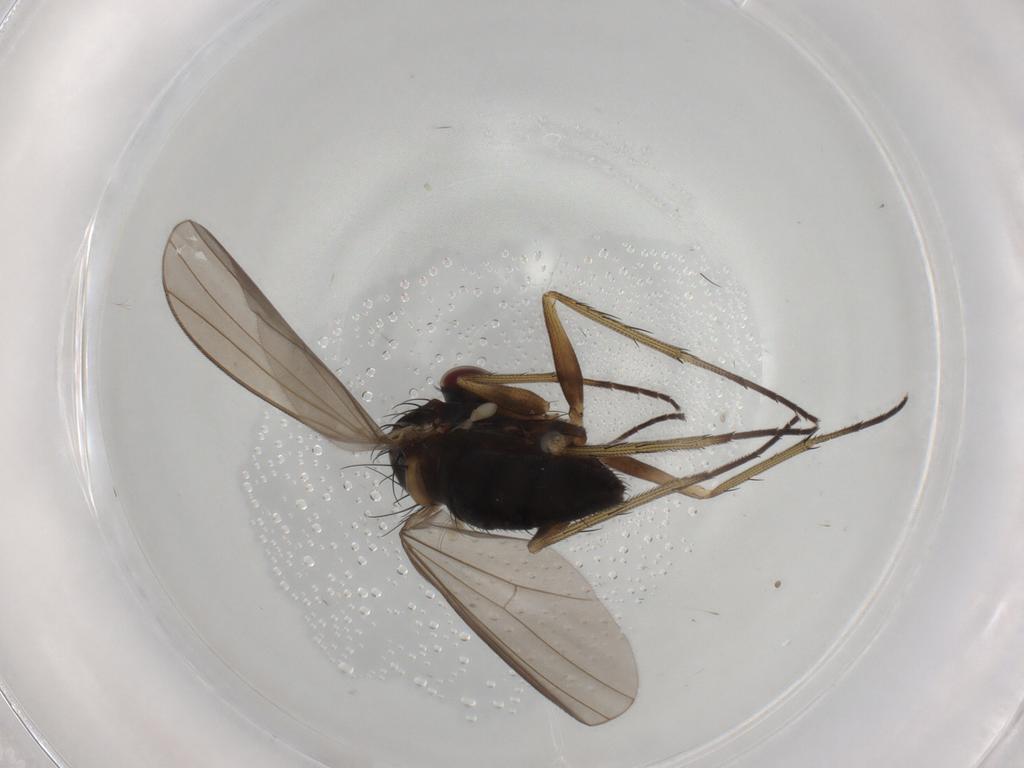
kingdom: Animalia
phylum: Arthropoda
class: Insecta
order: Diptera
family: Dolichopodidae
